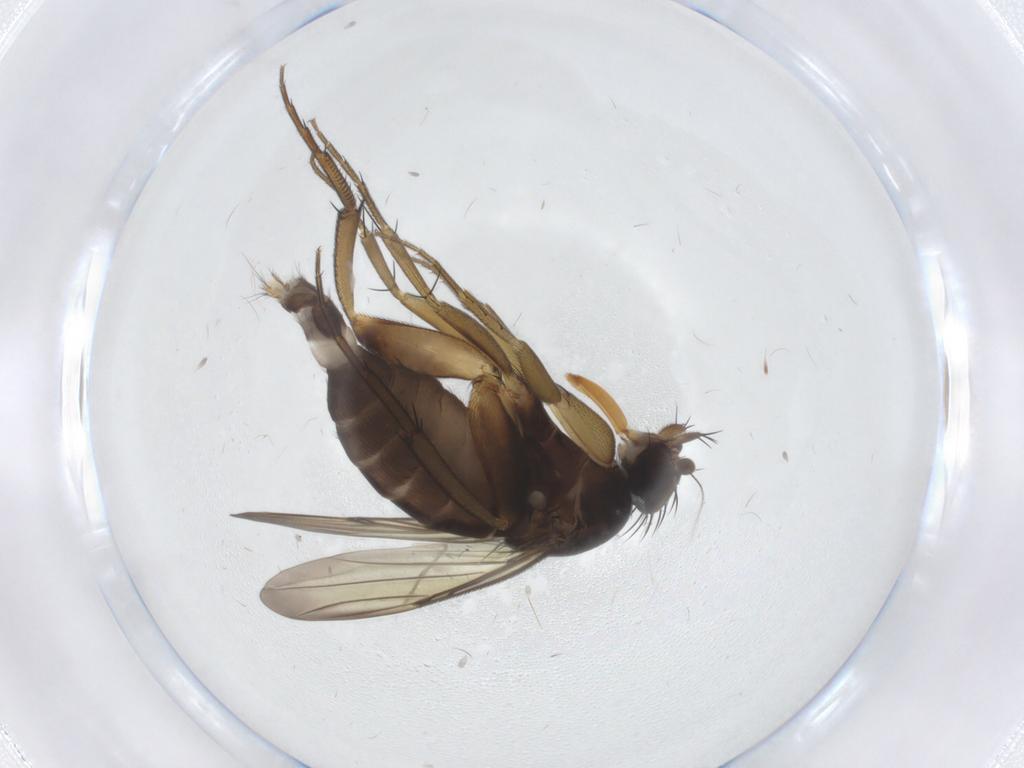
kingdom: Animalia
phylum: Arthropoda
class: Insecta
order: Diptera
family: Phoridae
